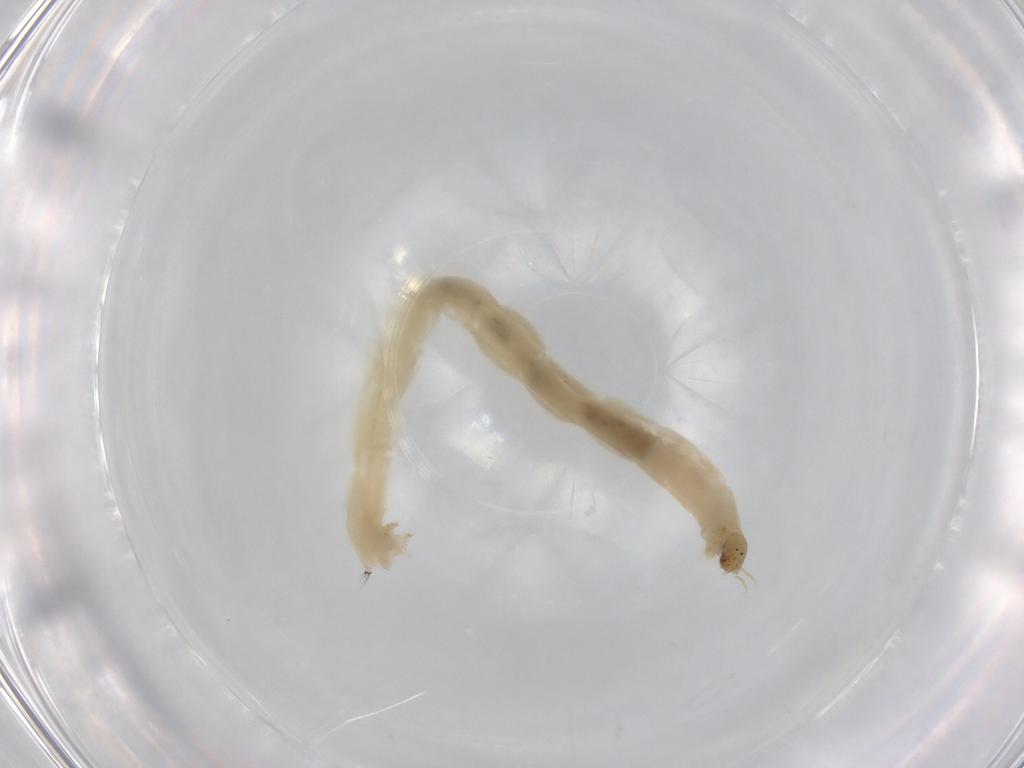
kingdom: Animalia
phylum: Arthropoda
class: Insecta
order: Diptera
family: Chironomidae
